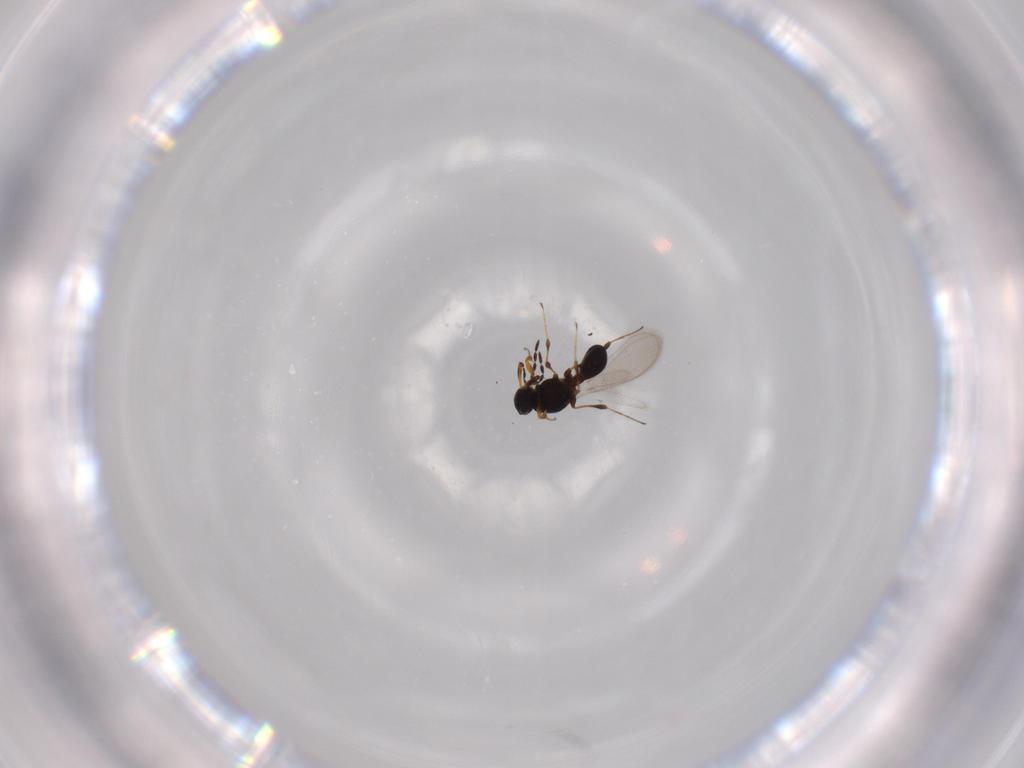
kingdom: Animalia
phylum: Arthropoda
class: Insecta
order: Hymenoptera
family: Platygastridae
